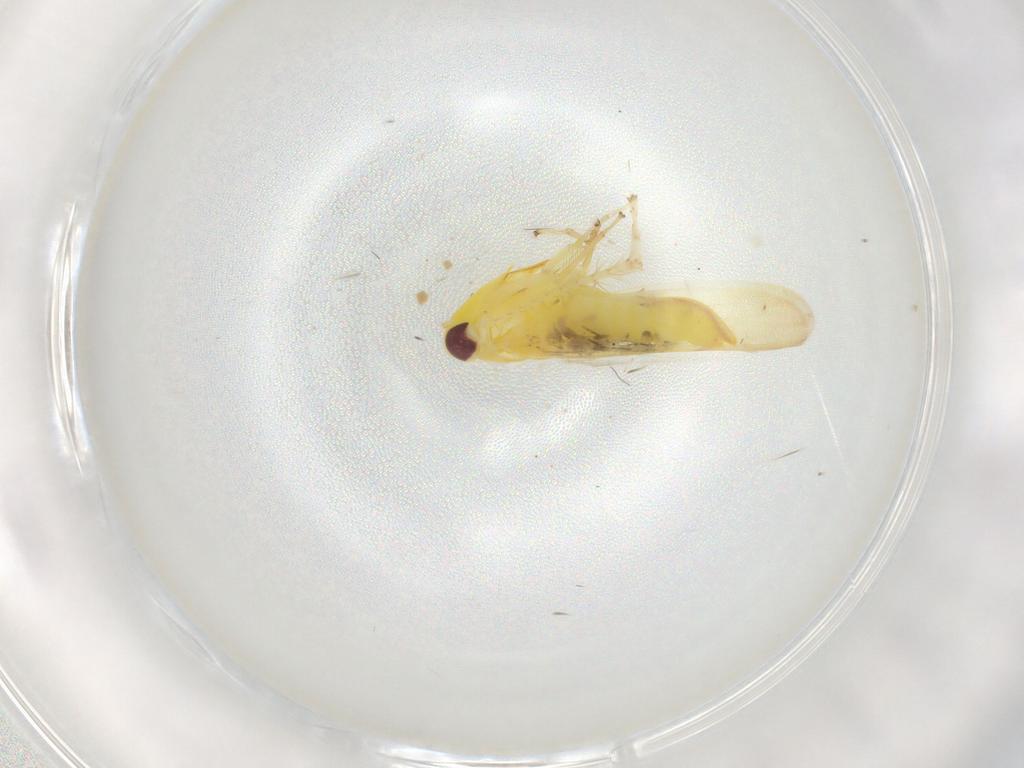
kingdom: Animalia
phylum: Arthropoda
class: Insecta
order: Hemiptera
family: Cicadellidae
